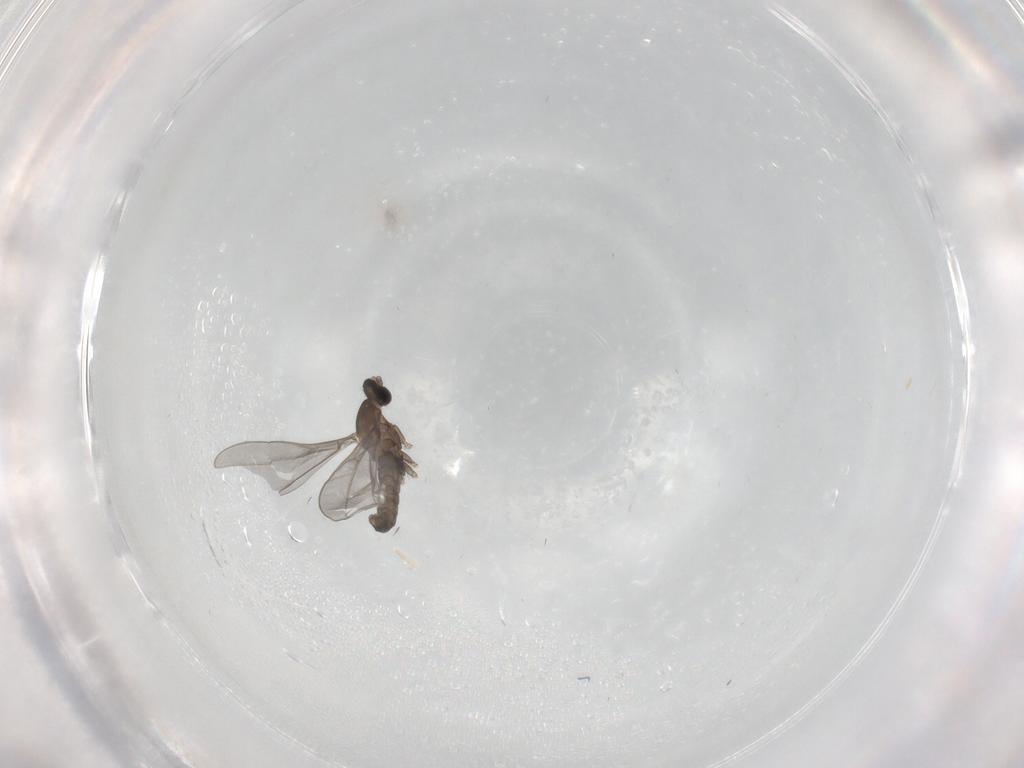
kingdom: Animalia
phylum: Arthropoda
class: Insecta
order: Diptera
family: Cecidomyiidae
